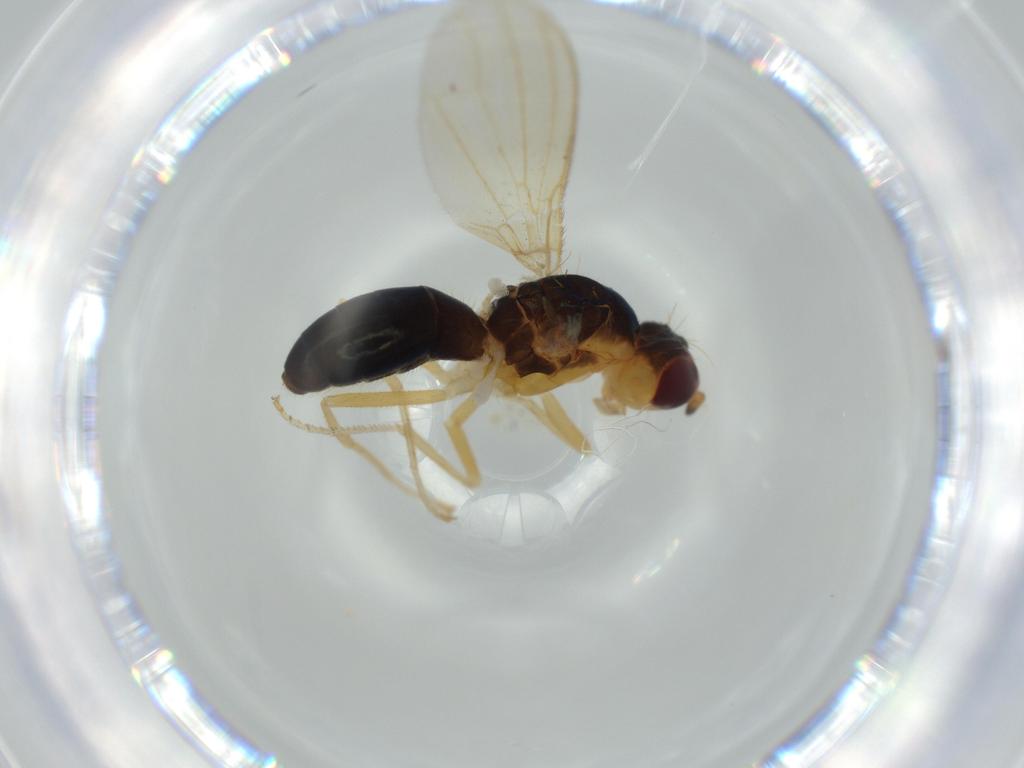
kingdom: Animalia
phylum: Arthropoda
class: Insecta
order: Diptera
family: Chironomidae
